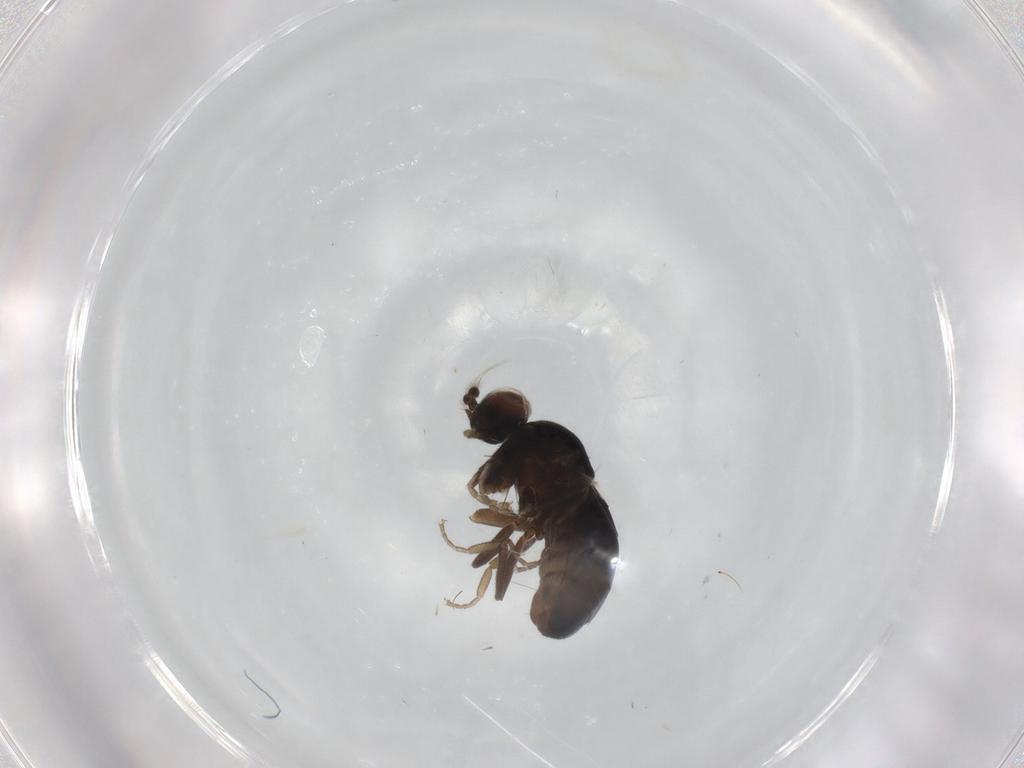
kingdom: Animalia
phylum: Arthropoda
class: Insecta
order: Diptera
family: Phoridae
